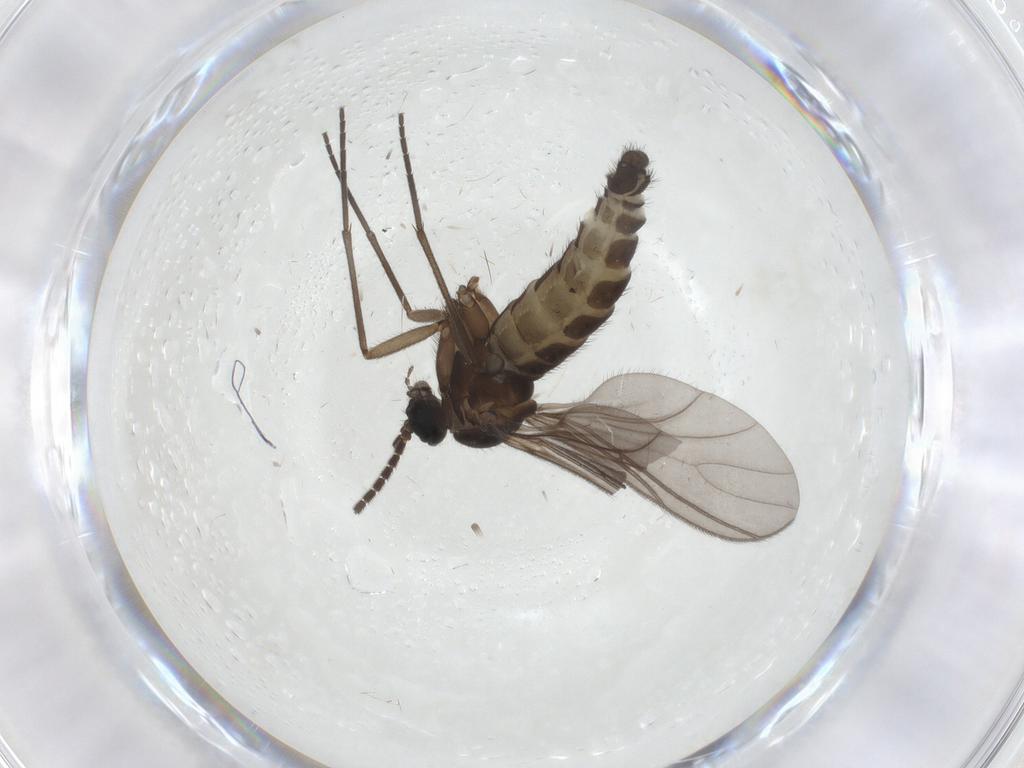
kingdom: Animalia
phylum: Arthropoda
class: Insecta
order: Diptera
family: Sciaridae
